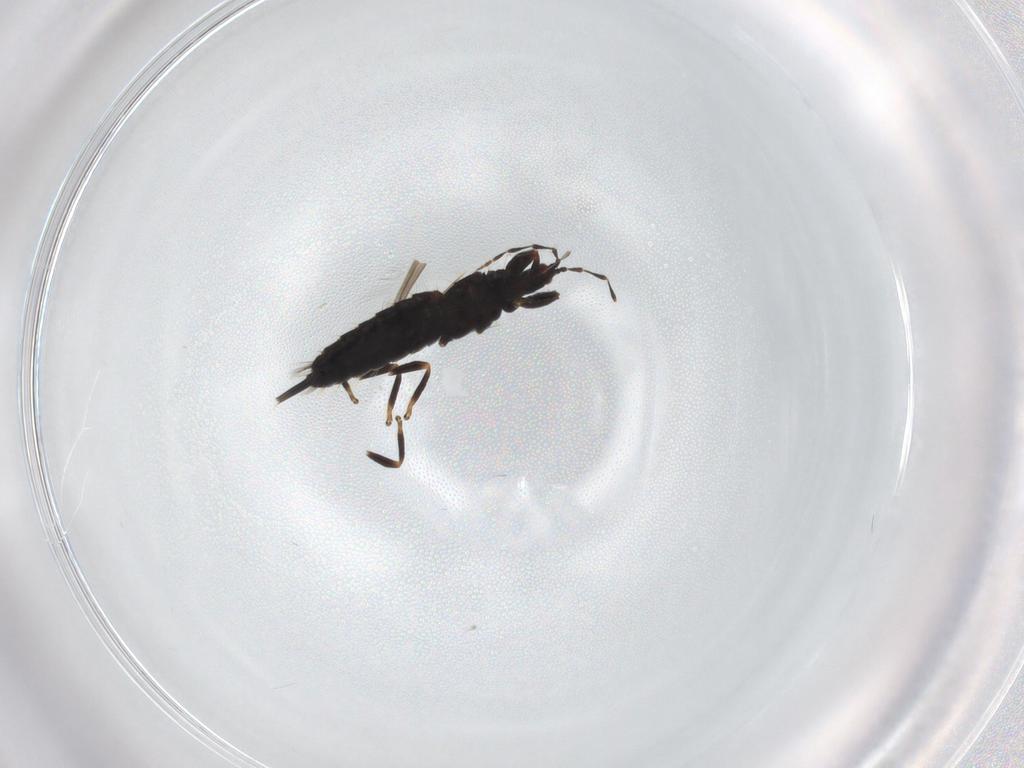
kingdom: Animalia
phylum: Arthropoda
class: Insecta
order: Thysanoptera
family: Phlaeothripidae
